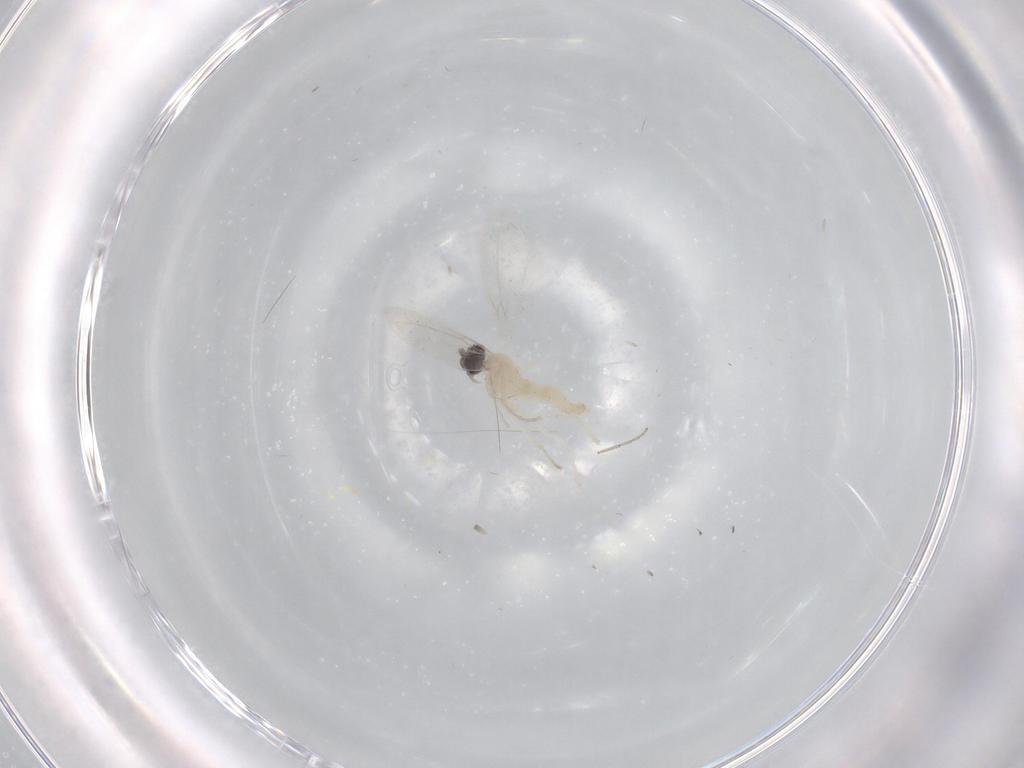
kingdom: Animalia
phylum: Arthropoda
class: Insecta
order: Diptera
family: Chironomidae
